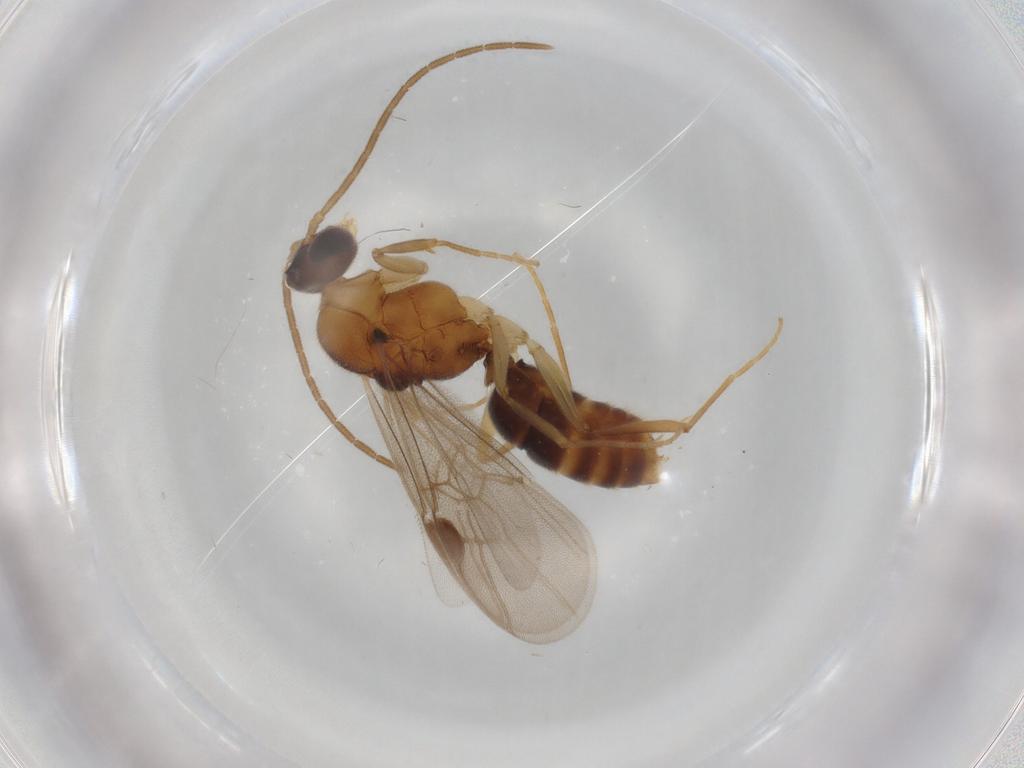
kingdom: Animalia
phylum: Arthropoda
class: Insecta
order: Hymenoptera
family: Formicidae
